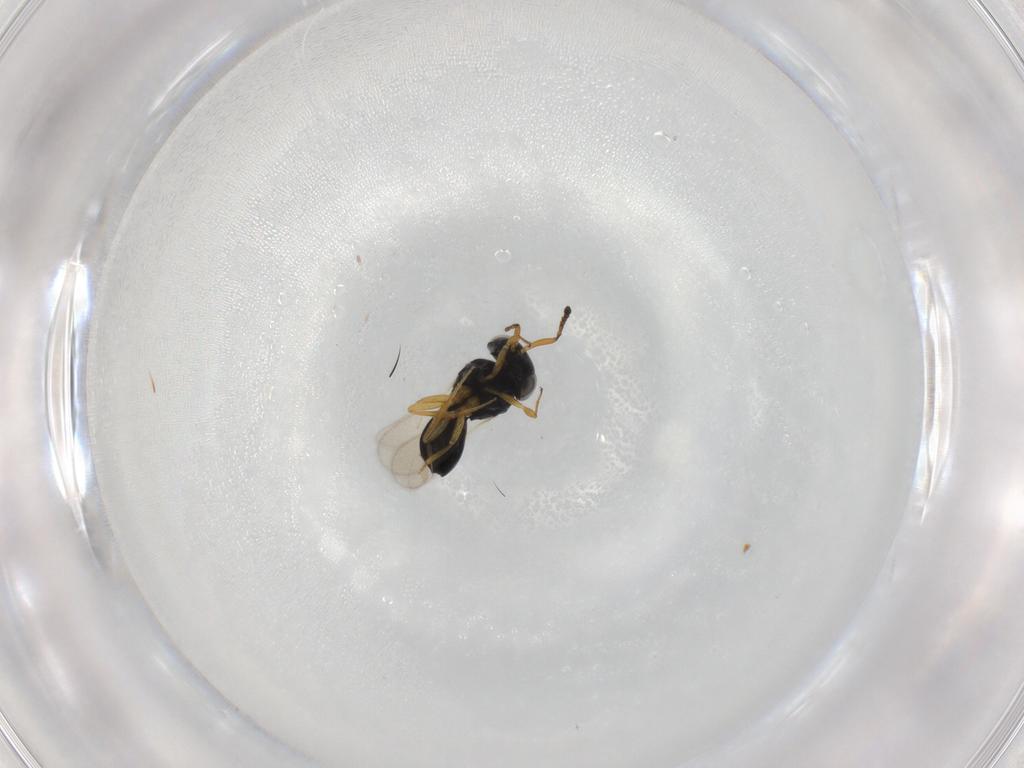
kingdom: Animalia
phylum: Arthropoda
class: Insecta
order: Hymenoptera
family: Scelionidae
